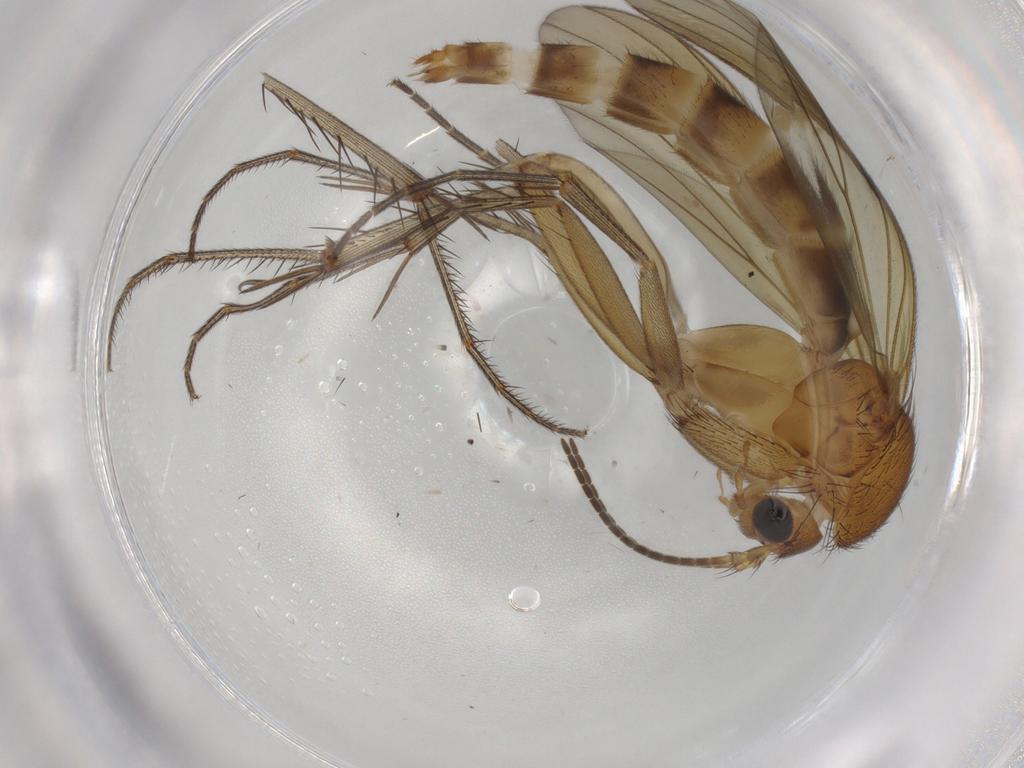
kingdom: Animalia
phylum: Arthropoda
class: Insecta
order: Diptera
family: Chironomidae
